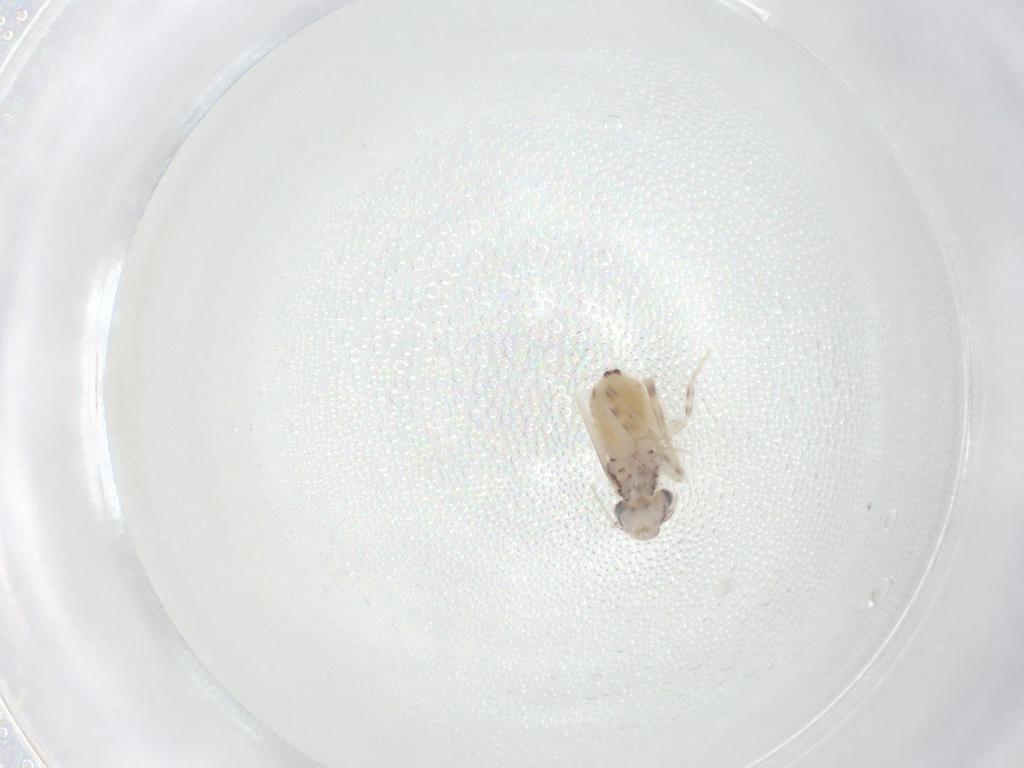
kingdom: Animalia
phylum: Arthropoda
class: Insecta
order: Psocodea
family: Lepidopsocidae
